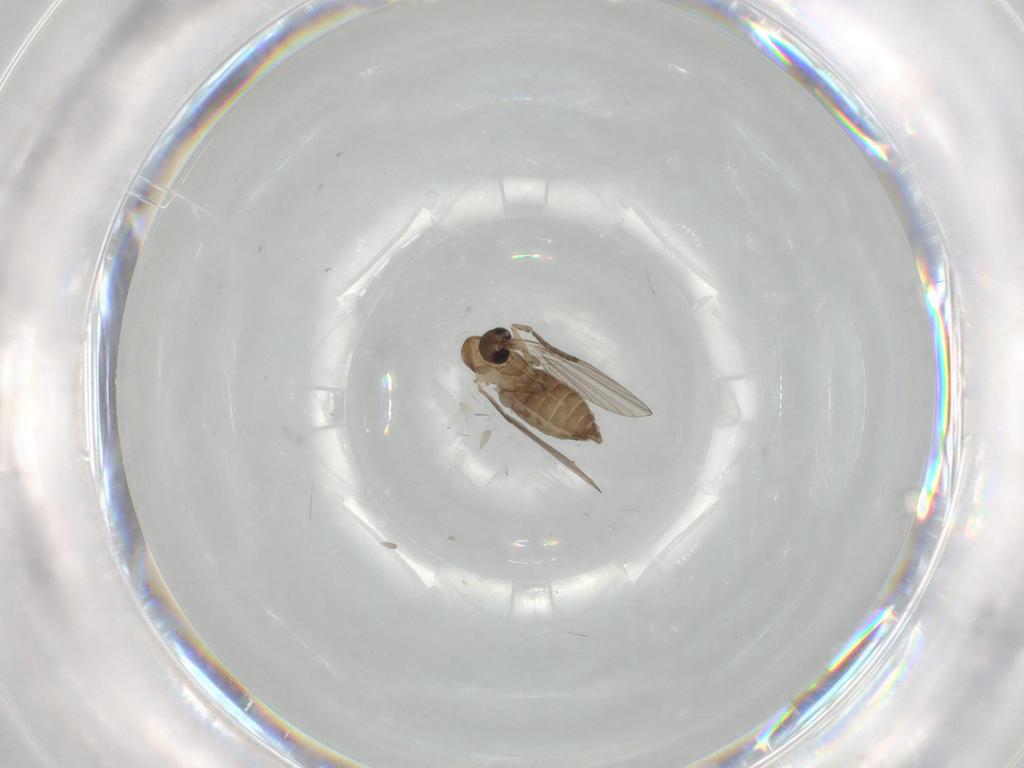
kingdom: Animalia
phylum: Arthropoda
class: Insecta
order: Diptera
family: Psychodidae
